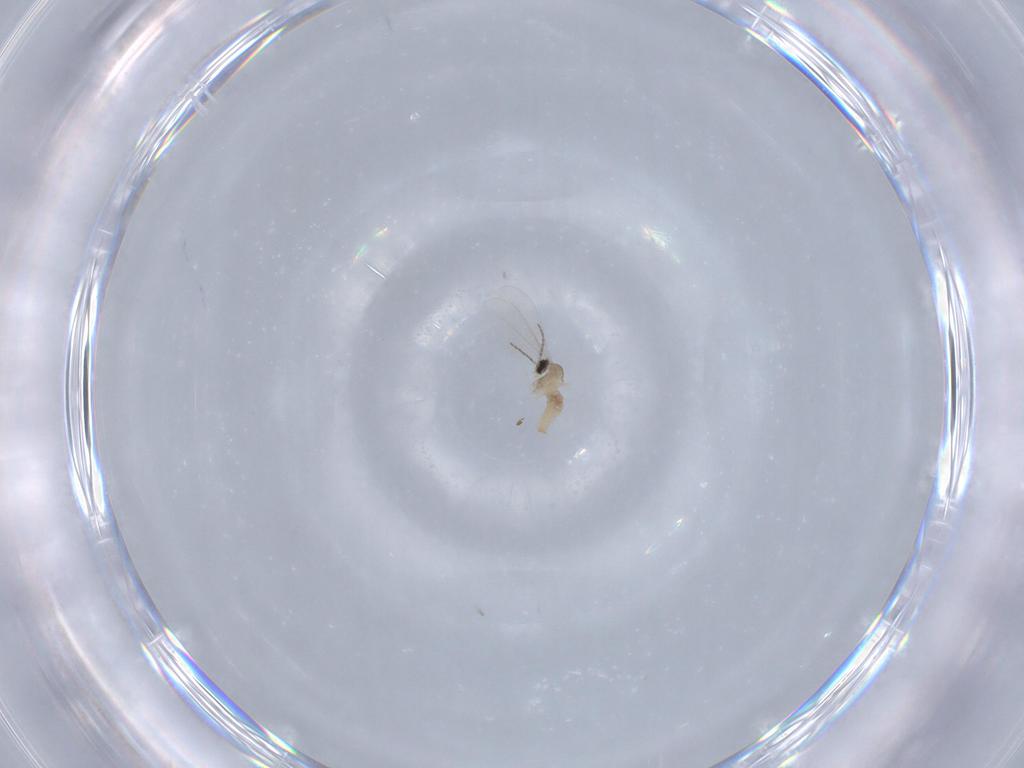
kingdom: Animalia
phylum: Arthropoda
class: Insecta
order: Diptera
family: Cecidomyiidae
